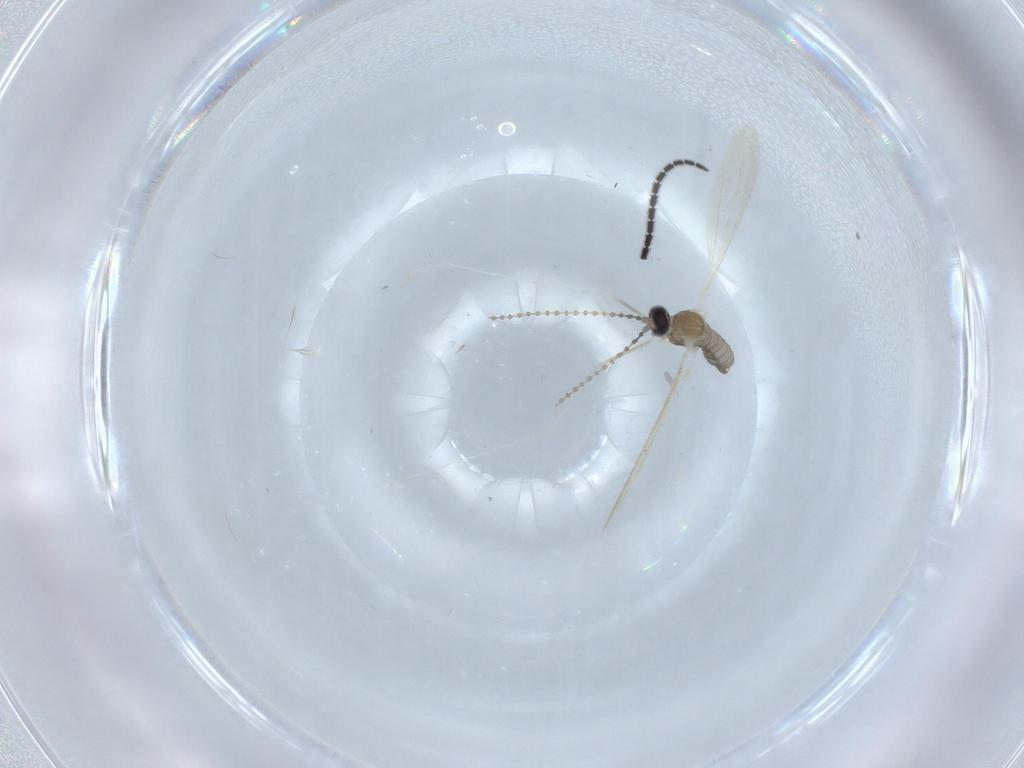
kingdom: Animalia
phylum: Arthropoda
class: Insecta
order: Diptera
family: Cecidomyiidae
